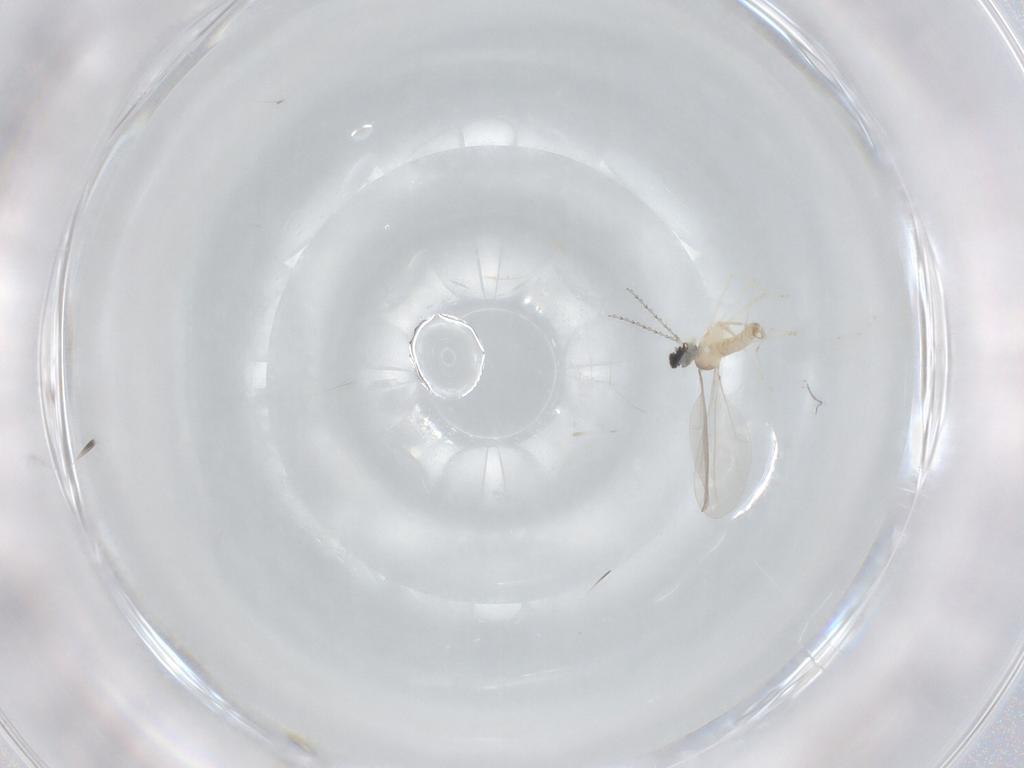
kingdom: Animalia
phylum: Arthropoda
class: Insecta
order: Diptera
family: Cecidomyiidae
